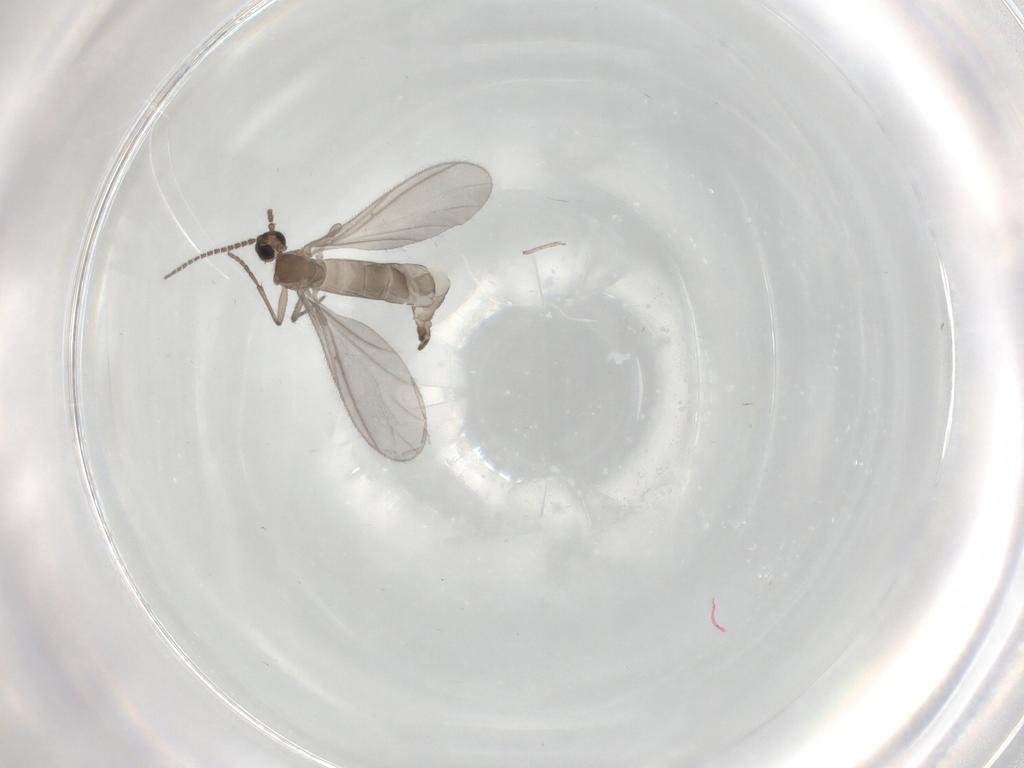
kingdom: Animalia
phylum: Arthropoda
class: Insecta
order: Diptera
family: Sciaridae
